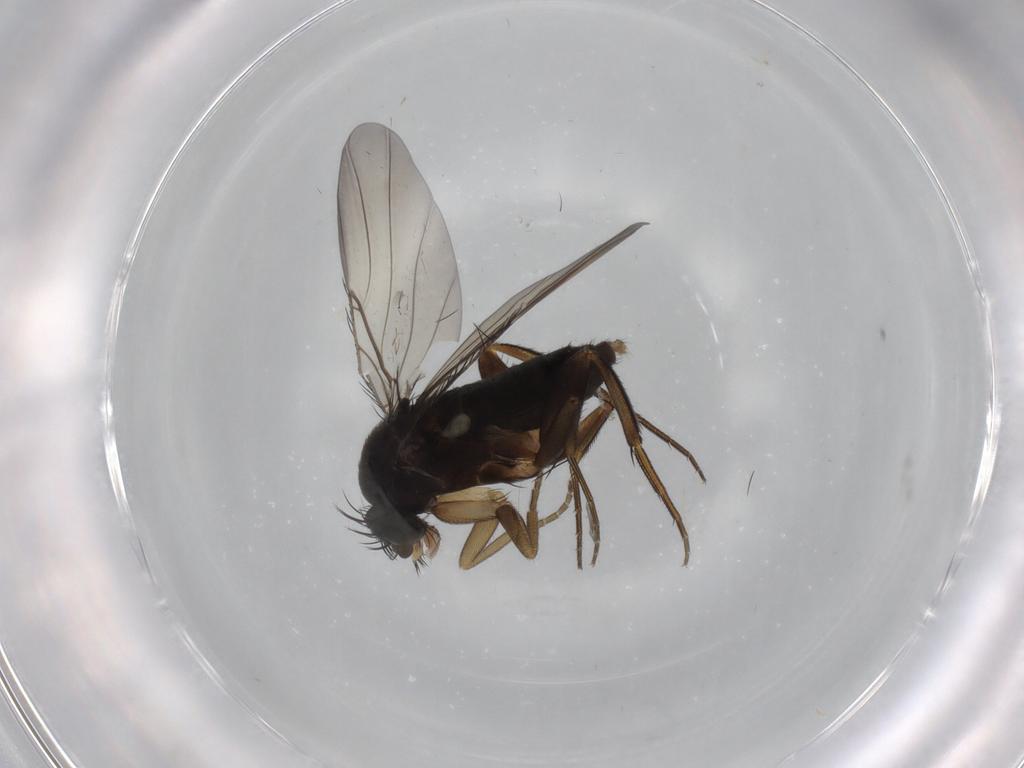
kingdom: Animalia
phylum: Arthropoda
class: Insecta
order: Diptera
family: Phoridae
